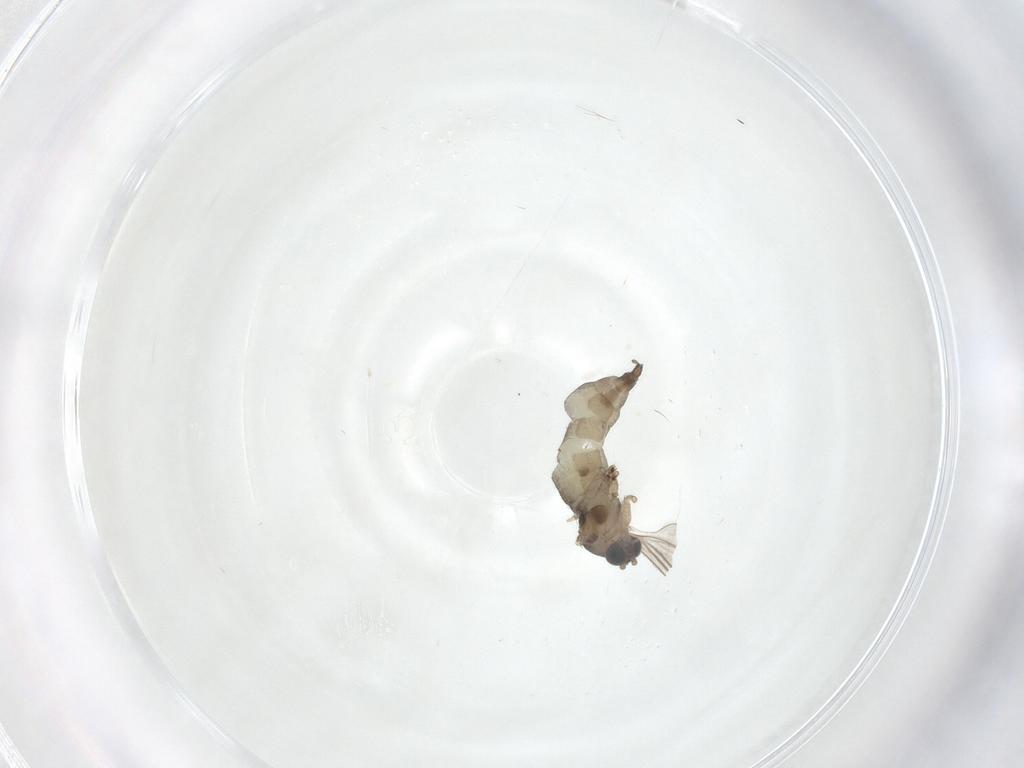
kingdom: Animalia
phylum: Arthropoda
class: Insecta
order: Diptera
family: Sciaridae
